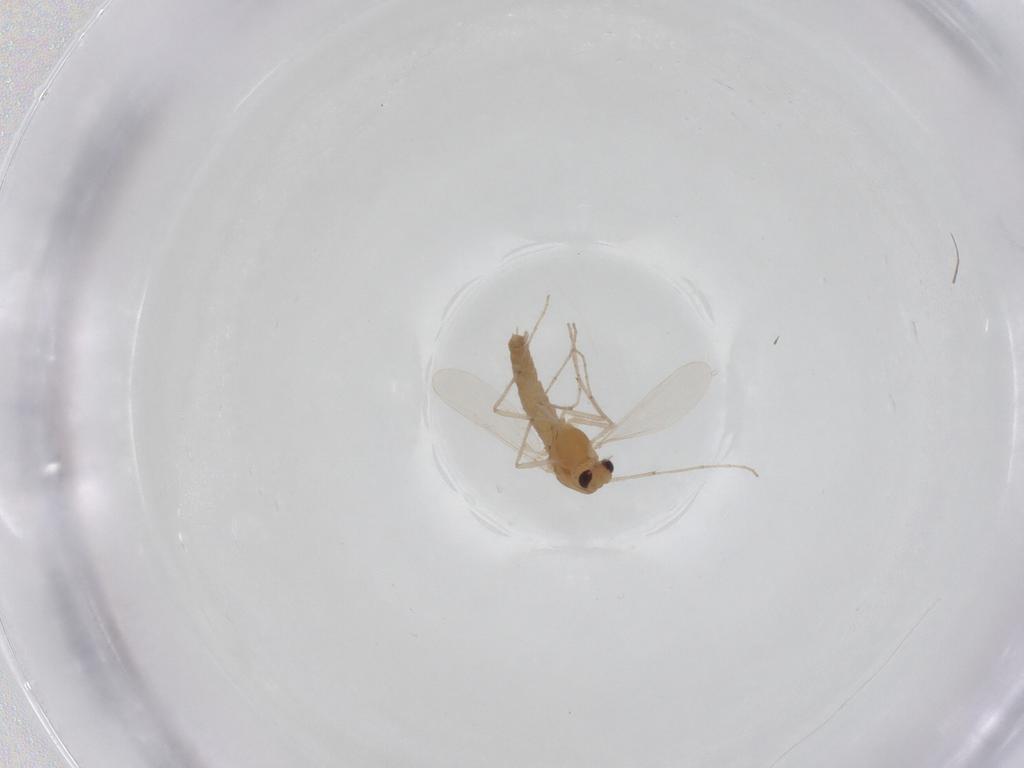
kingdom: Animalia
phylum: Arthropoda
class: Insecta
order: Diptera
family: Chironomidae
